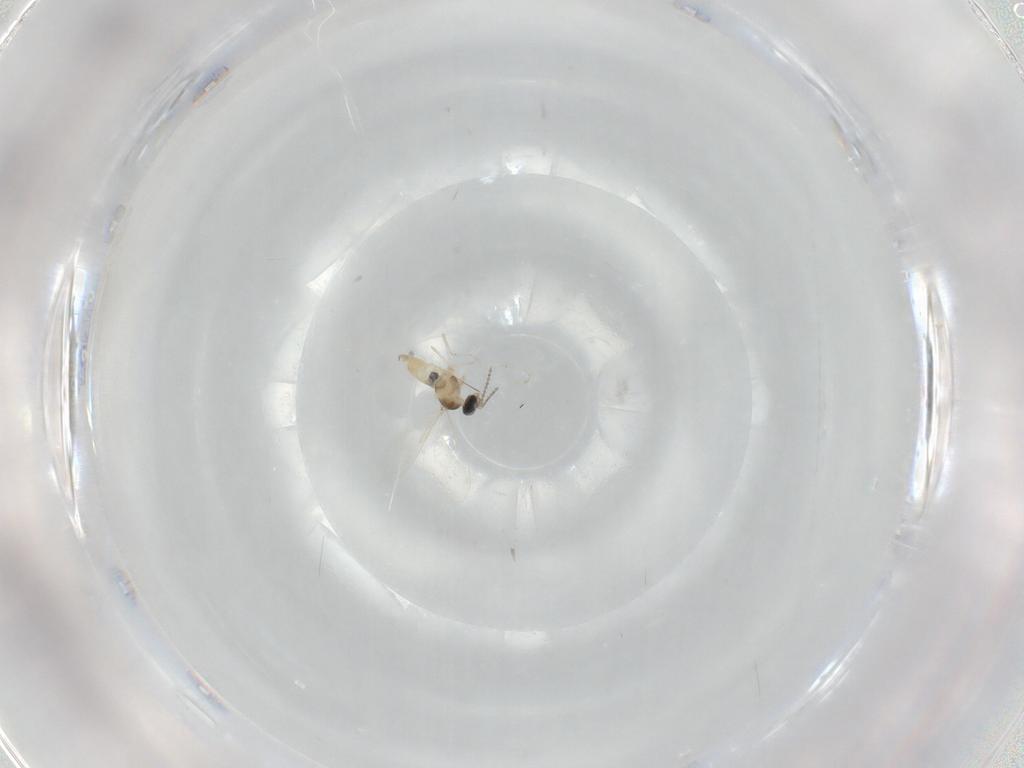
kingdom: Animalia
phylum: Arthropoda
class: Insecta
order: Diptera
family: Cecidomyiidae
